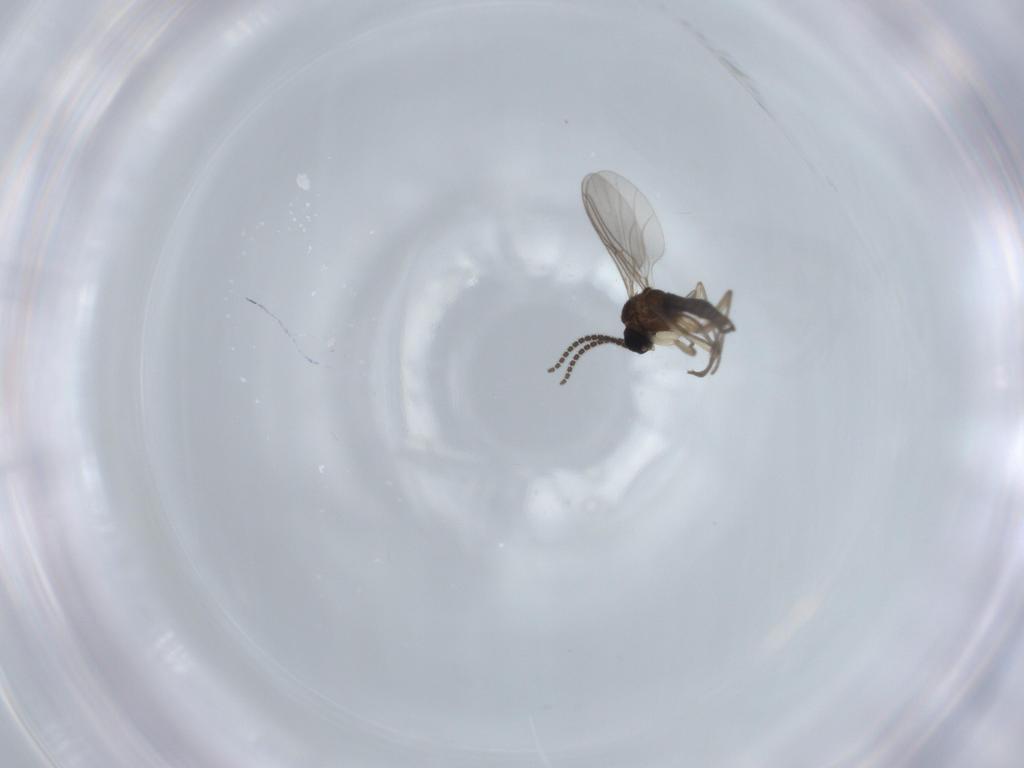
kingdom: Animalia
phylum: Arthropoda
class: Insecta
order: Diptera
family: Sciaridae
